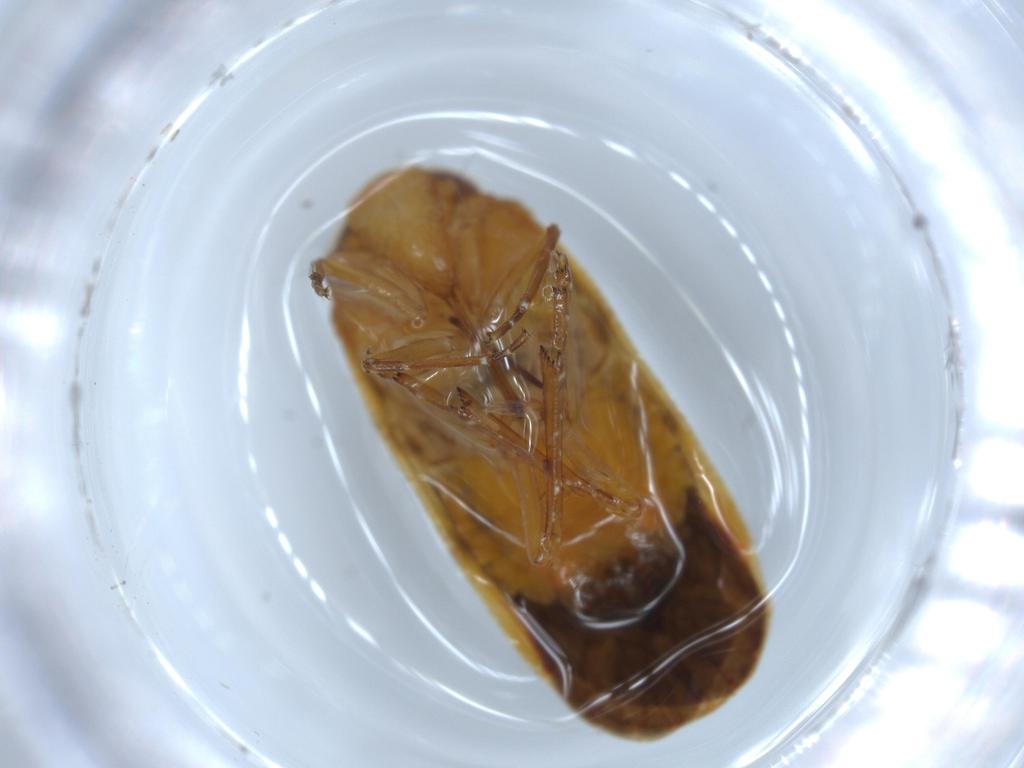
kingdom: Animalia
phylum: Arthropoda
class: Insecta
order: Hemiptera
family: Achilidae
